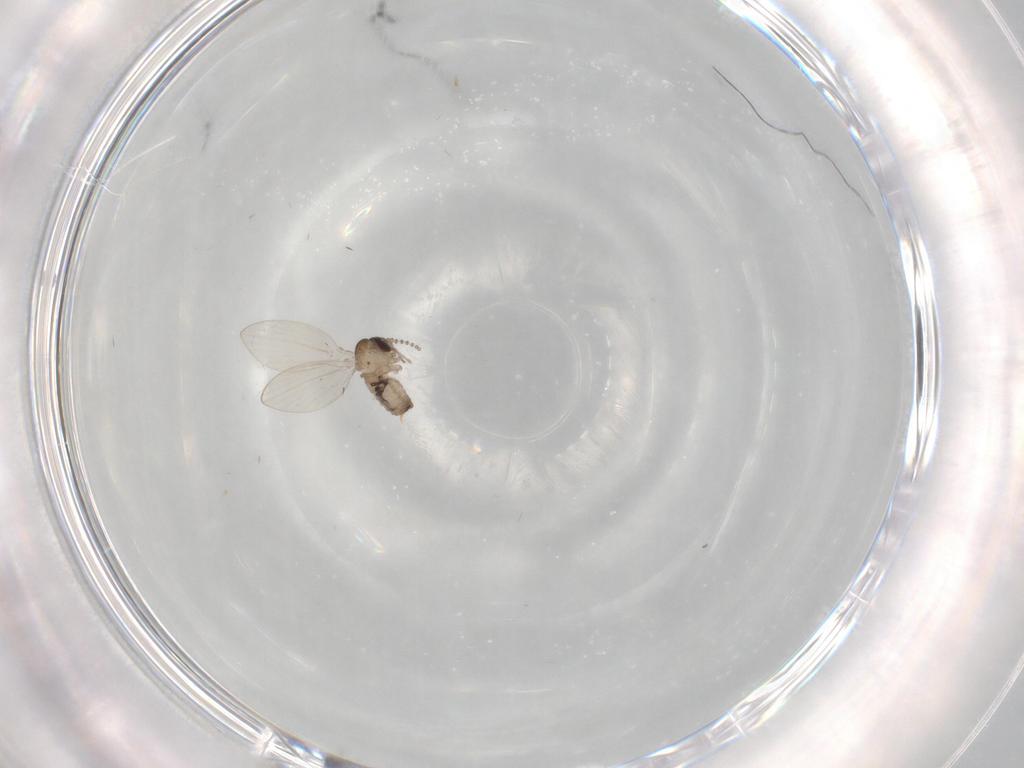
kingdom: Animalia
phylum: Arthropoda
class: Insecta
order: Diptera
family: Psychodidae
